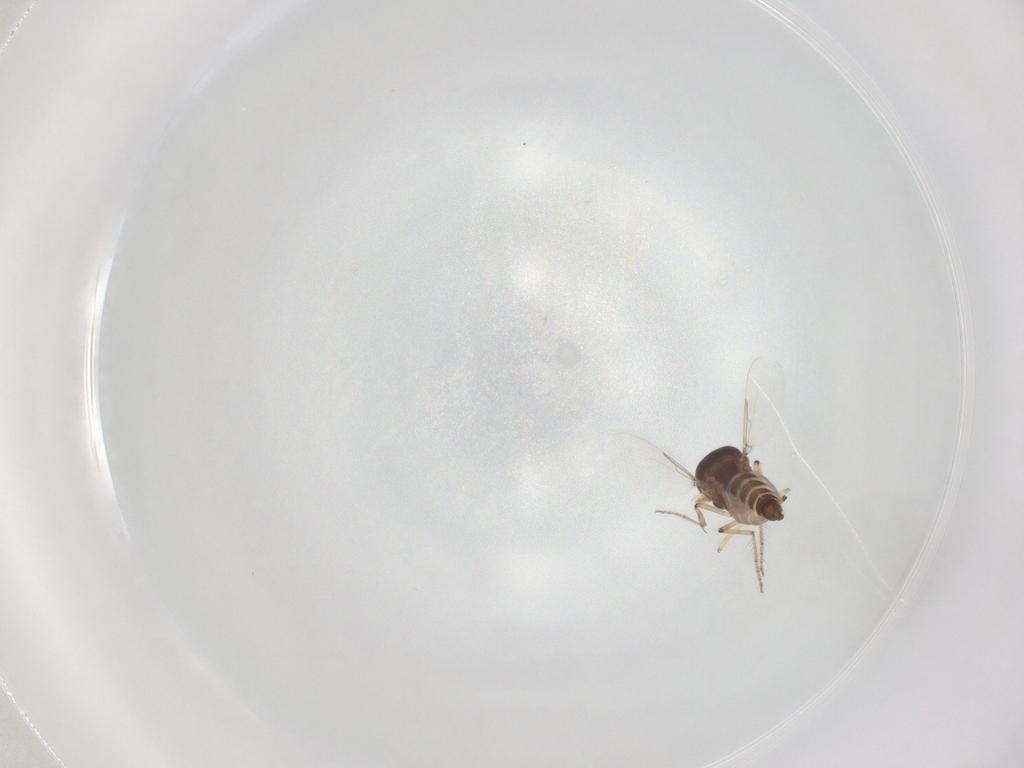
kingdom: Animalia
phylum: Arthropoda
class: Insecta
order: Diptera
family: Ceratopogonidae
